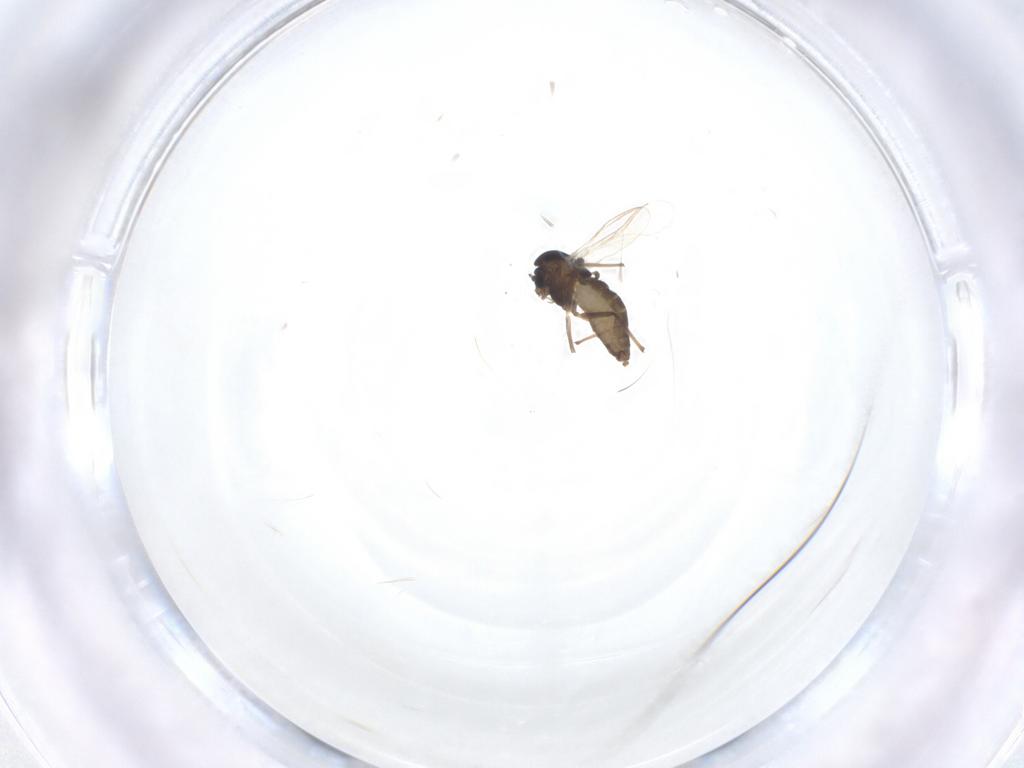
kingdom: Animalia
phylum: Arthropoda
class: Insecta
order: Diptera
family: Chironomidae
